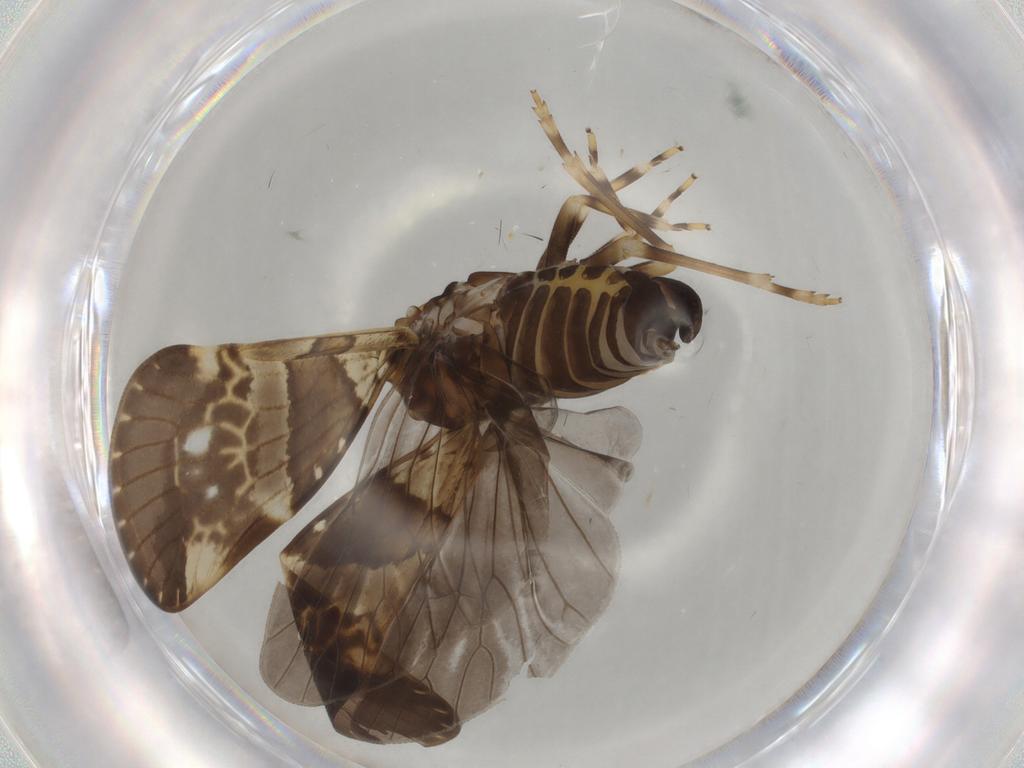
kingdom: Animalia
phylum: Arthropoda
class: Insecta
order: Hemiptera
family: Cixiidae
